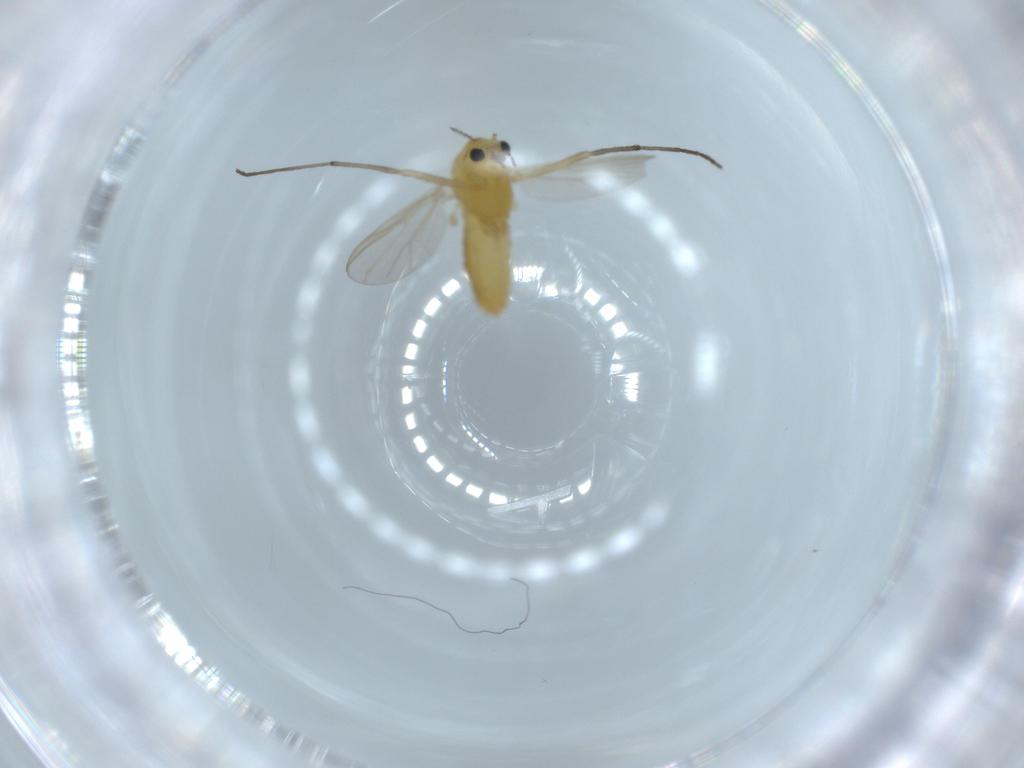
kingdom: Animalia
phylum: Arthropoda
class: Insecta
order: Diptera
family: Chironomidae
